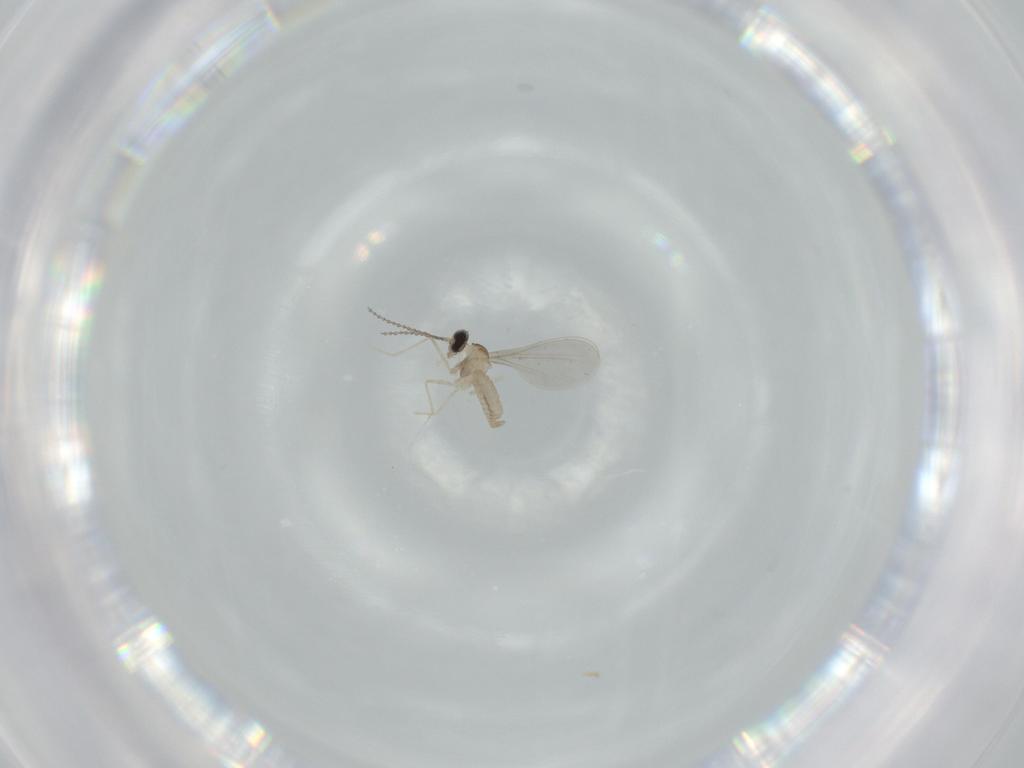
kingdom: Animalia
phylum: Arthropoda
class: Insecta
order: Diptera
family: Cecidomyiidae
